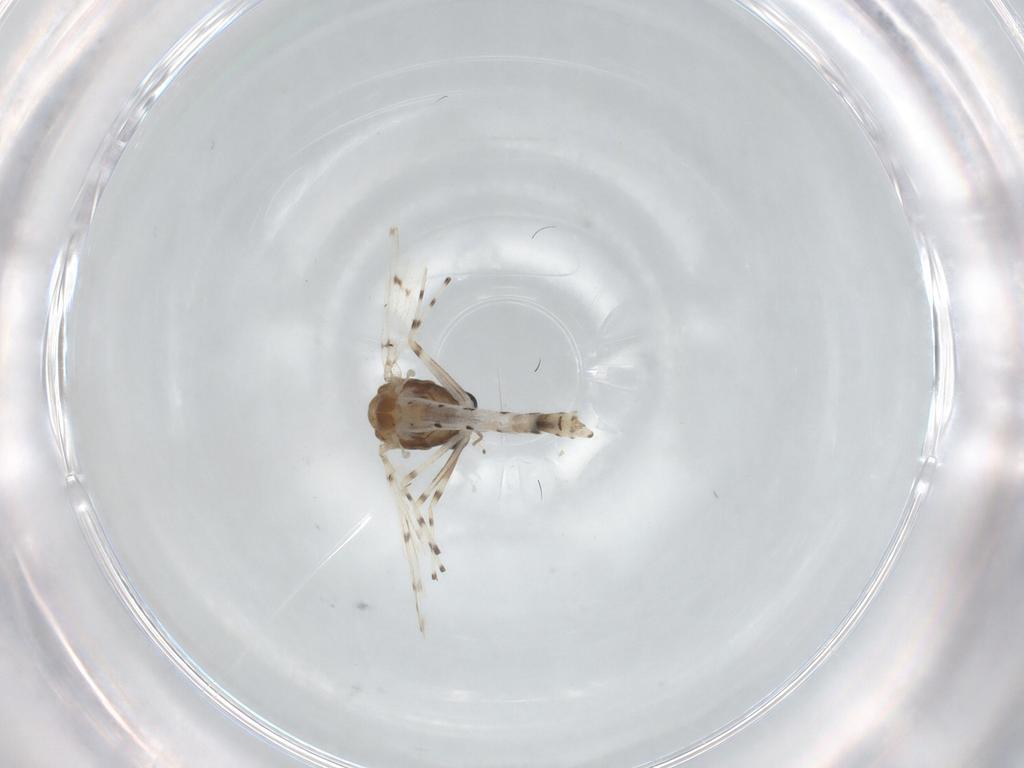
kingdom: Animalia
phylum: Arthropoda
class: Insecta
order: Diptera
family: Chironomidae
